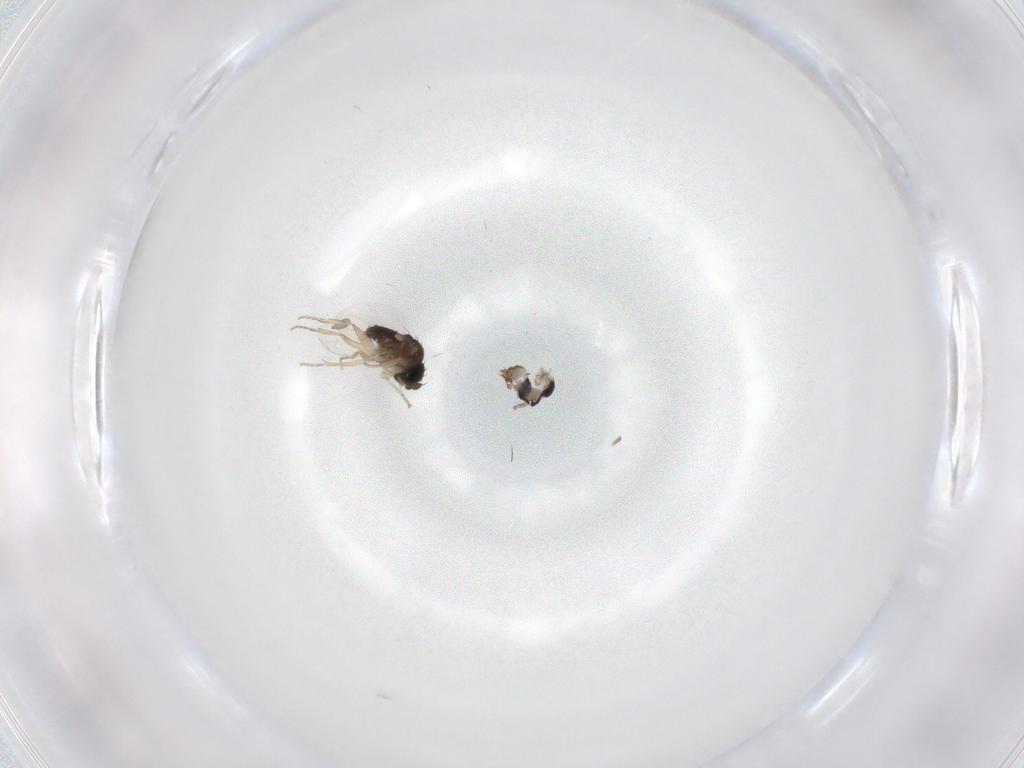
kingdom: Animalia
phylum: Arthropoda
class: Insecta
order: Diptera
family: Phoridae
